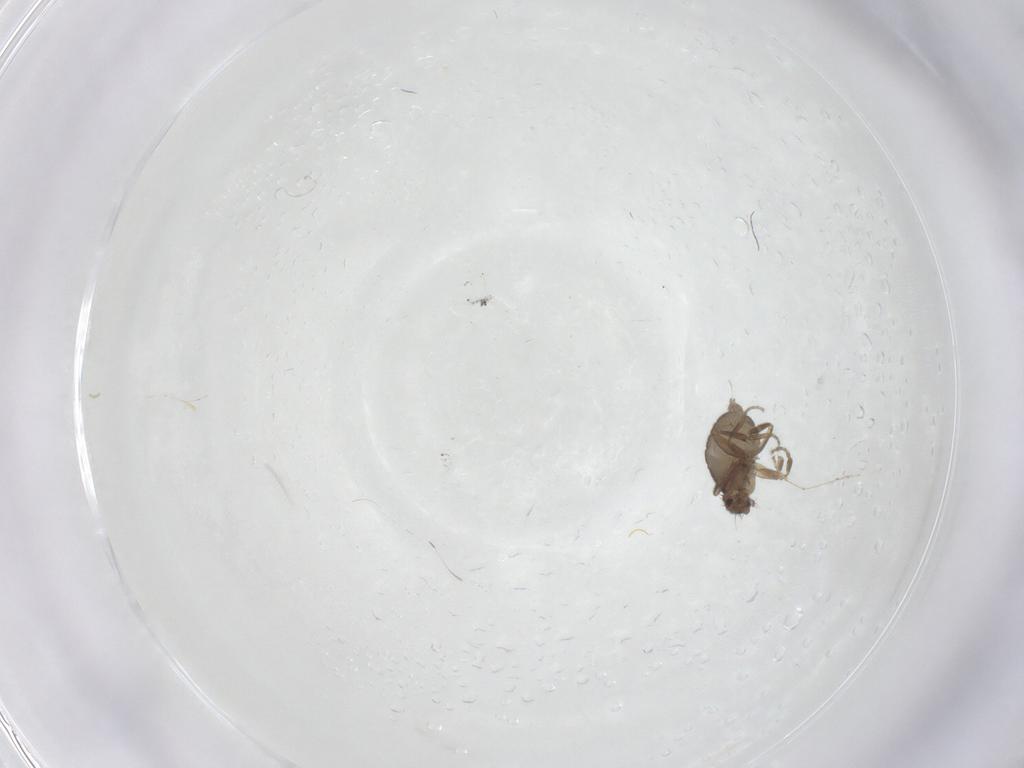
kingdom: Animalia
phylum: Arthropoda
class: Insecta
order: Diptera
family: Cecidomyiidae
